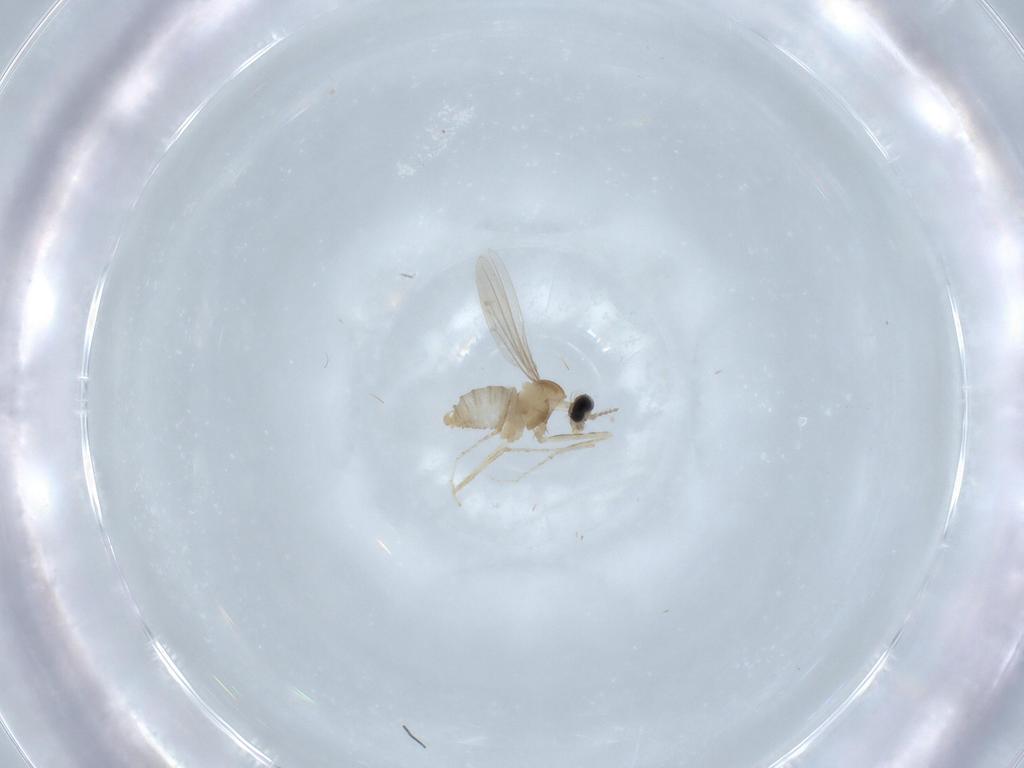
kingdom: Animalia
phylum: Arthropoda
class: Insecta
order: Diptera
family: Cecidomyiidae
